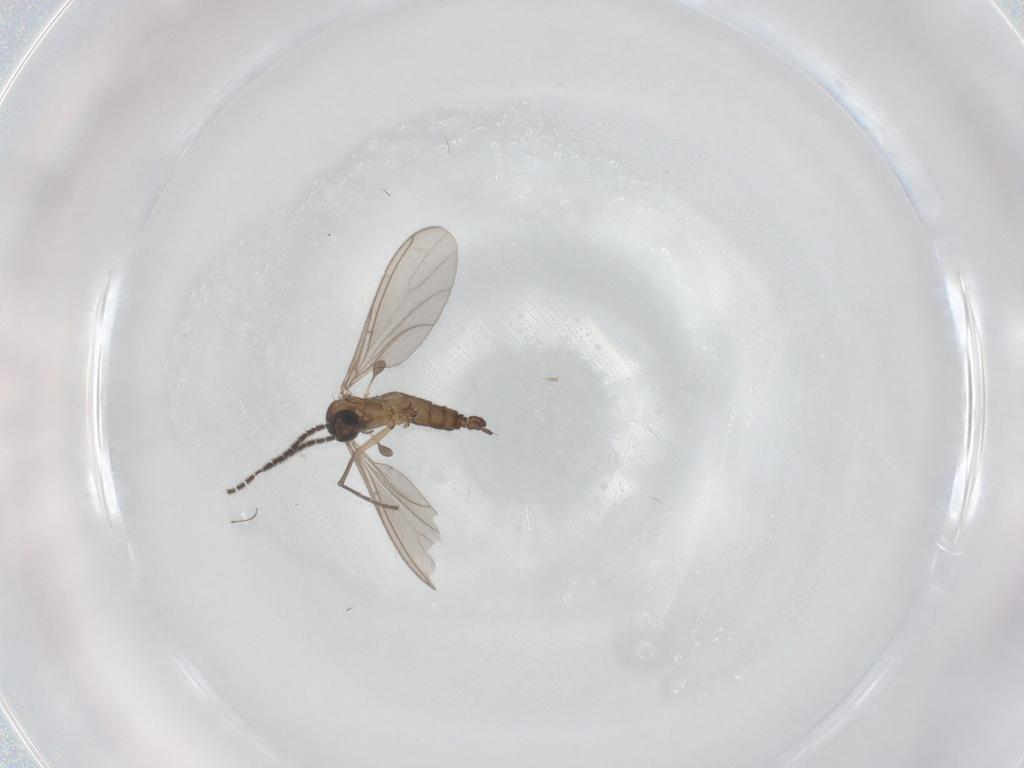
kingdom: Animalia
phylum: Arthropoda
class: Insecta
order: Diptera
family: Sciaridae
